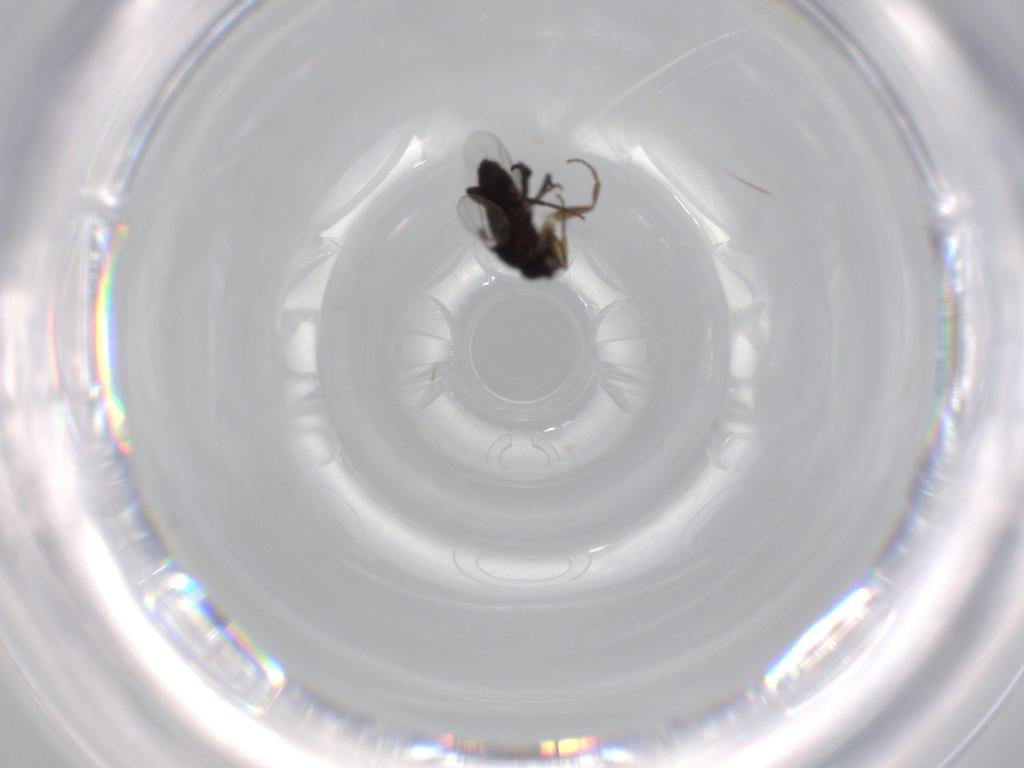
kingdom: Animalia
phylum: Arthropoda
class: Insecta
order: Diptera
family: Phoridae
